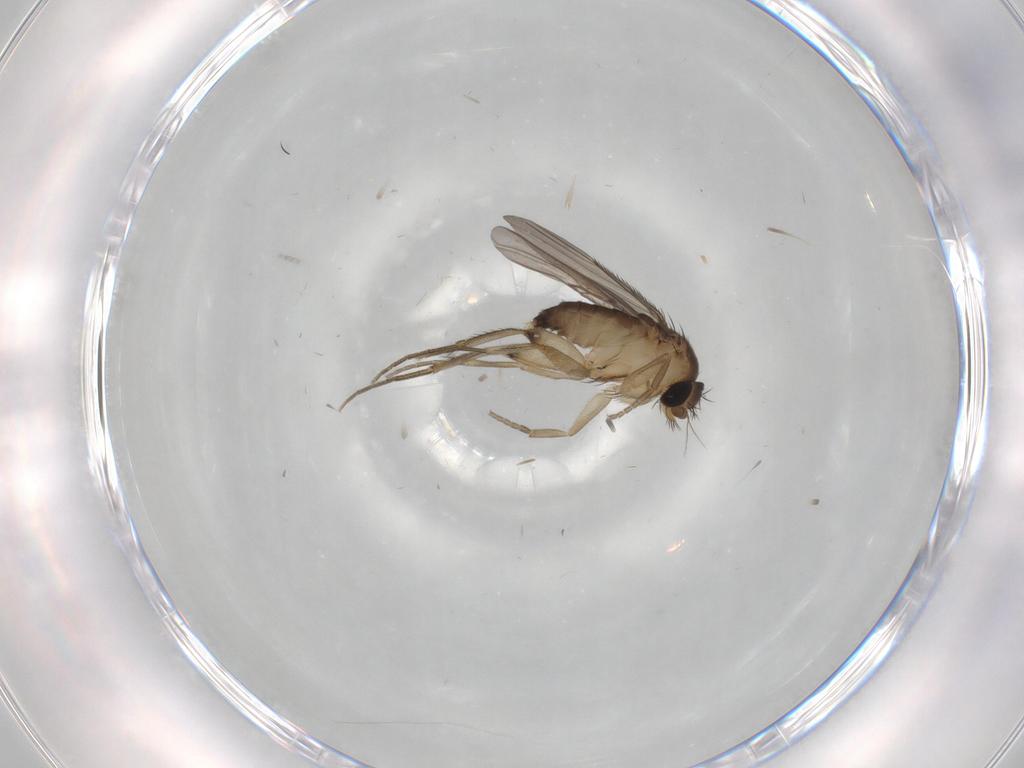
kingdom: Animalia
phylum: Arthropoda
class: Insecta
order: Diptera
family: Phoridae
